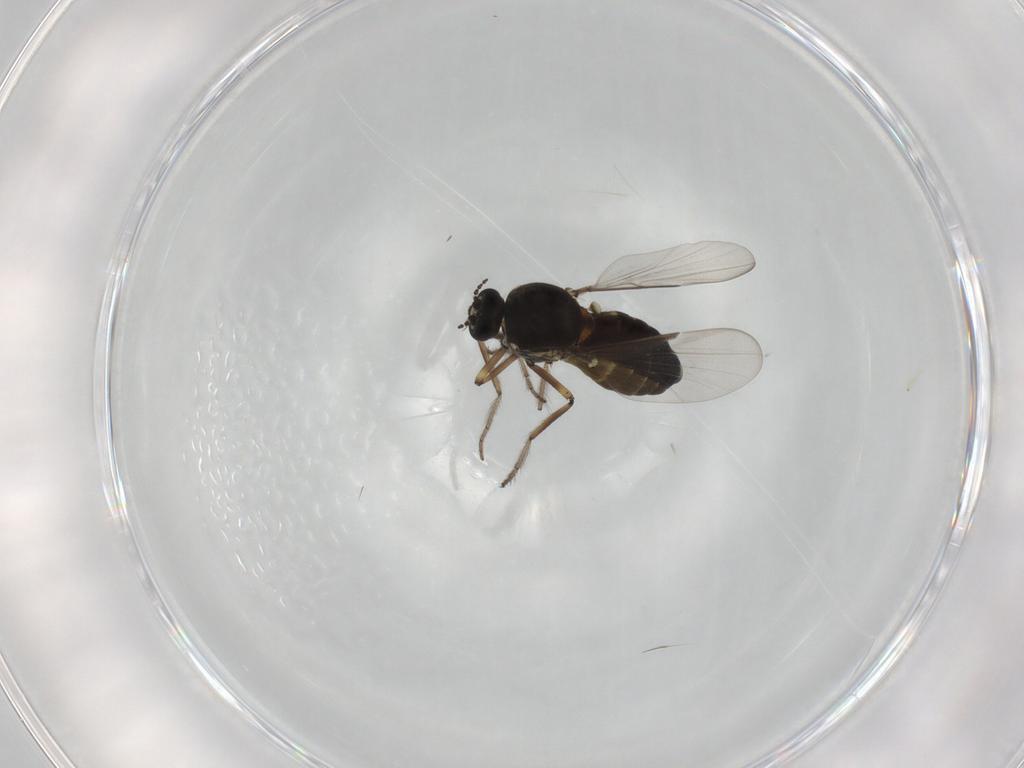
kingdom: Animalia
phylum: Arthropoda
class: Insecta
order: Diptera
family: Ceratopogonidae
